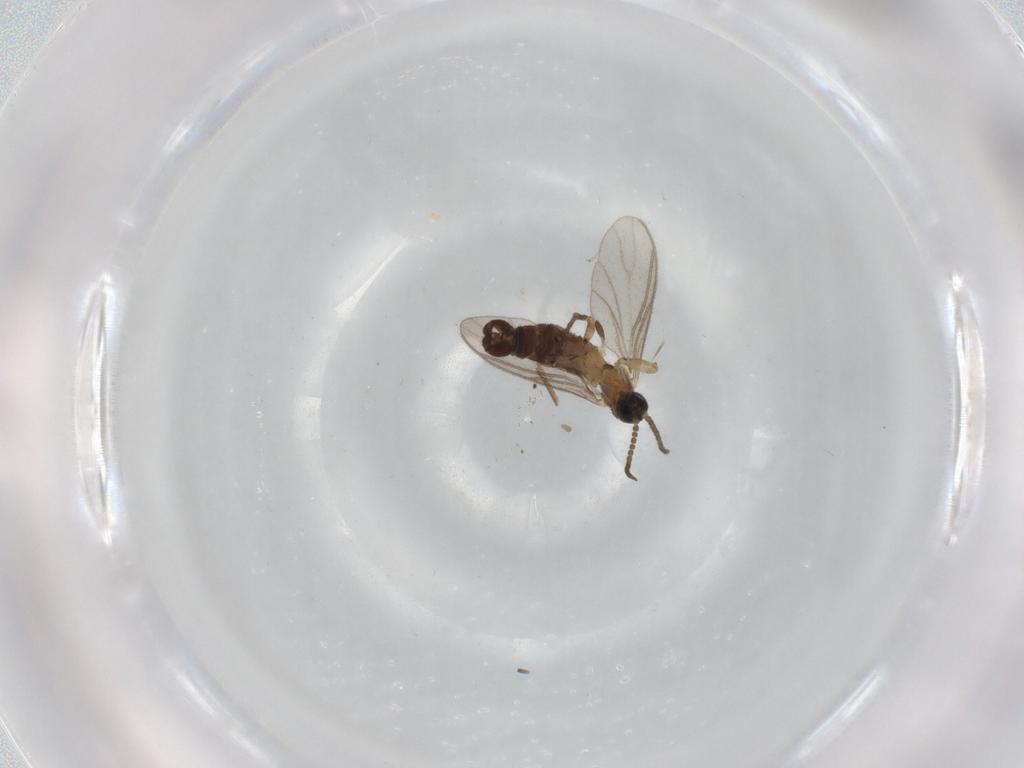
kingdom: Animalia
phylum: Arthropoda
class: Insecta
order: Diptera
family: Sciaridae
